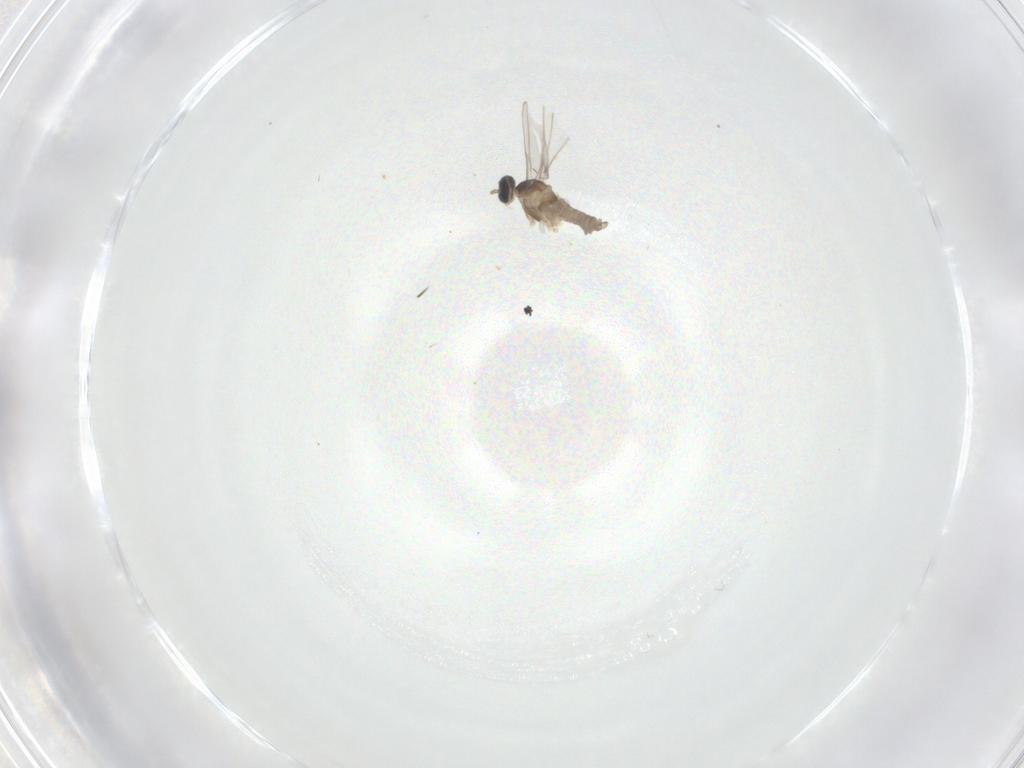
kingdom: Animalia
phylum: Arthropoda
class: Insecta
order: Diptera
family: Cecidomyiidae
